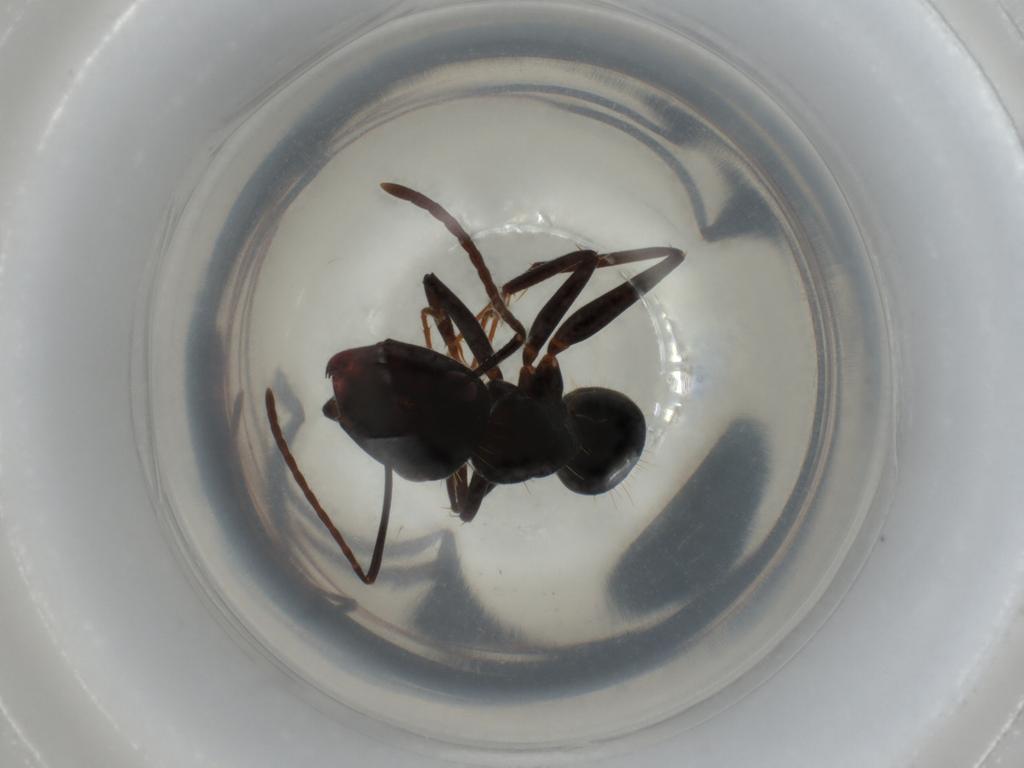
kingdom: Animalia
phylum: Arthropoda
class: Insecta
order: Hymenoptera
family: Formicidae
